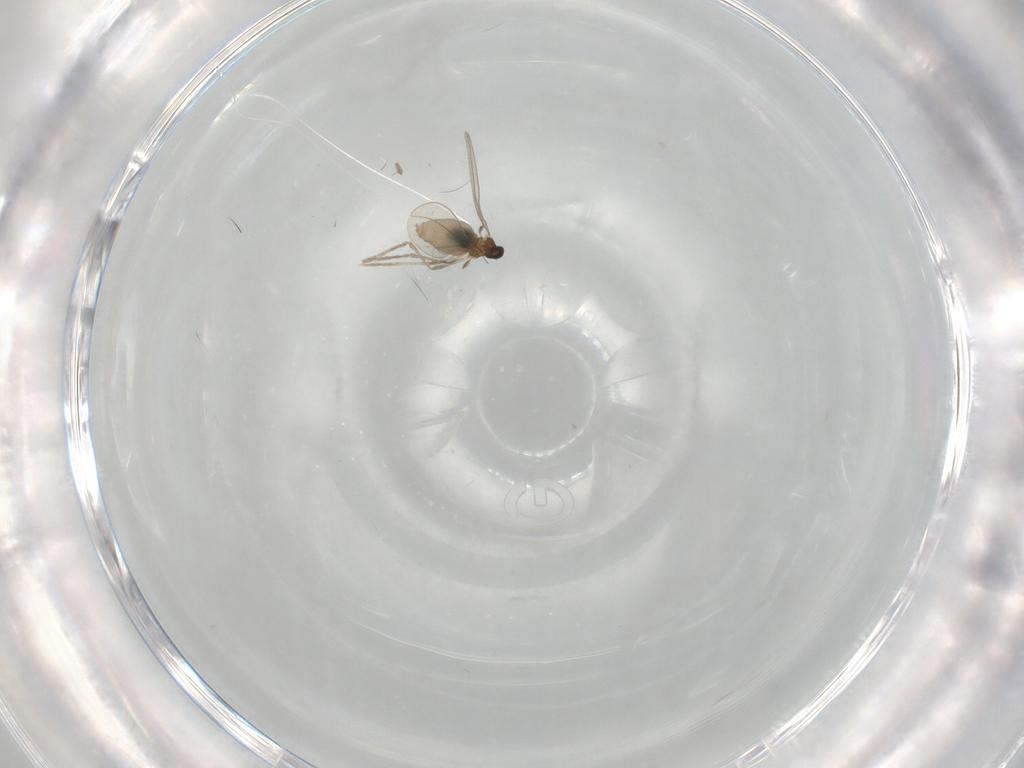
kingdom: Animalia
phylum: Arthropoda
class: Insecta
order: Diptera
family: Cecidomyiidae
